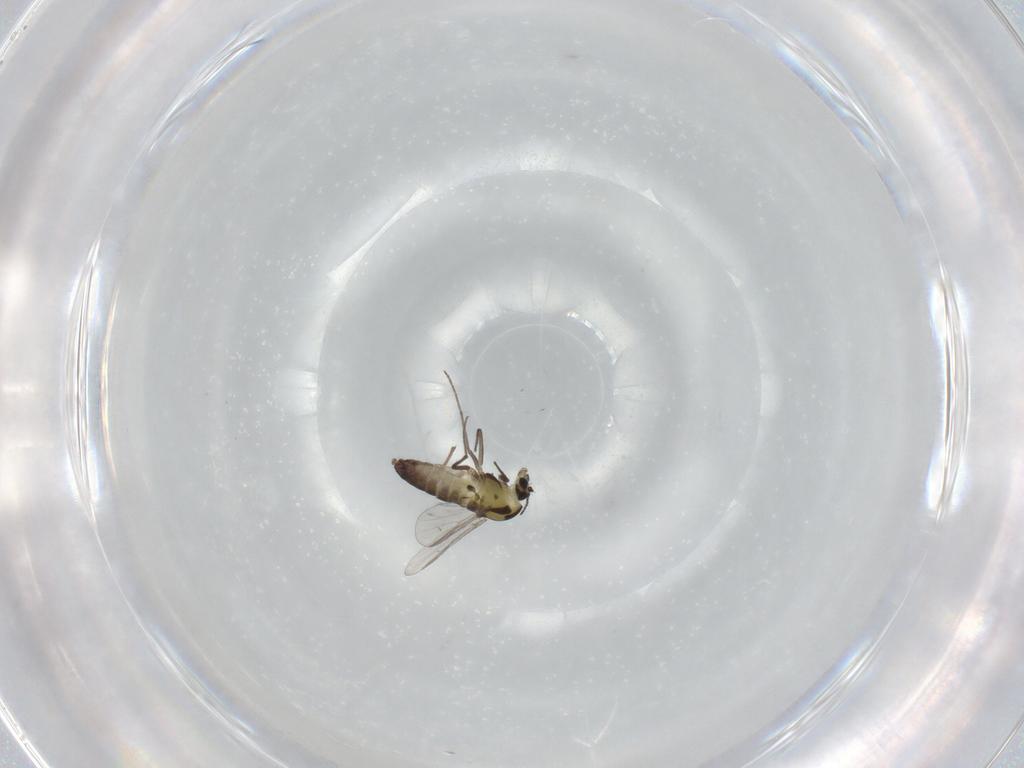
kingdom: Animalia
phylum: Arthropoda
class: Insecta
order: Diptera
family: Chironomidae
